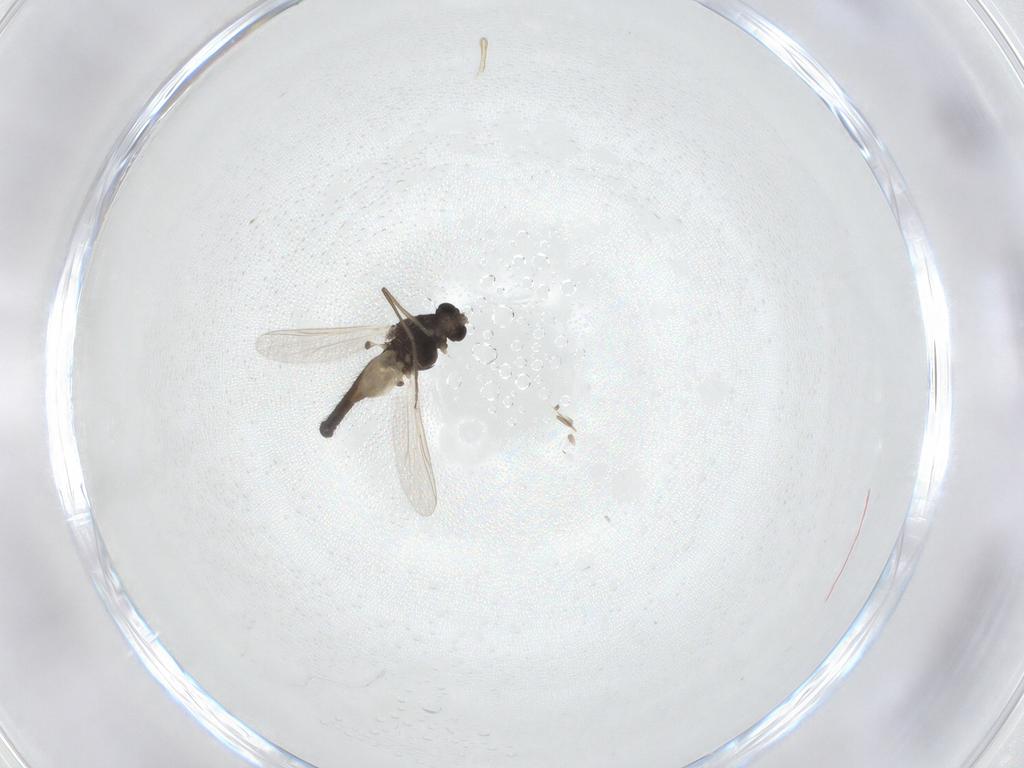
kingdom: Animalia
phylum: Arthropoda
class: Insecta
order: Diptera
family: Chironomidae
